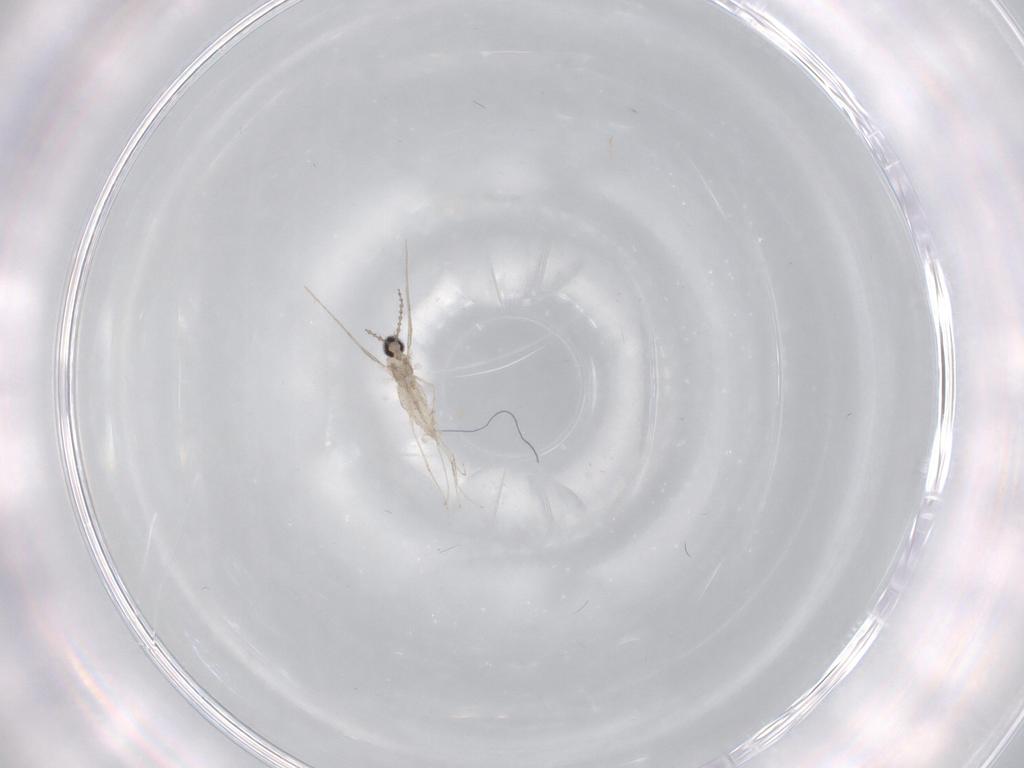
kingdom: Animalia
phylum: Arthropoda
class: Insecta
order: Diptera
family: Cecidomyiidae
